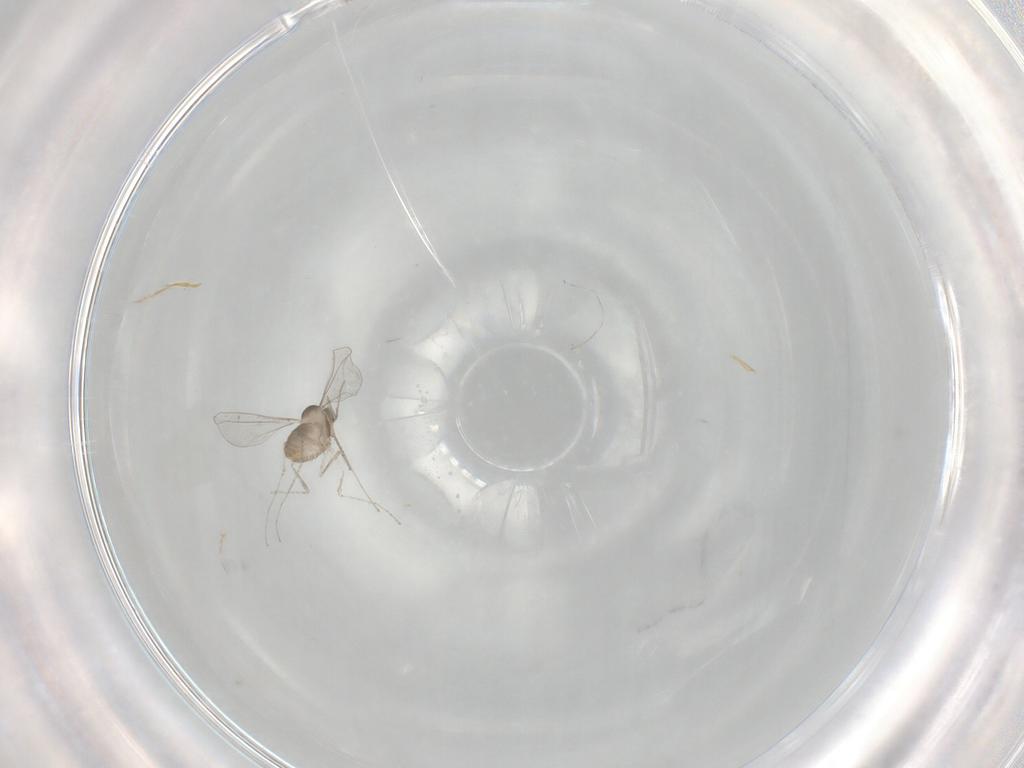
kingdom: Animalia
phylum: Arthropoda
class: Insecta
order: Diptera
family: Cecidomyiidae
